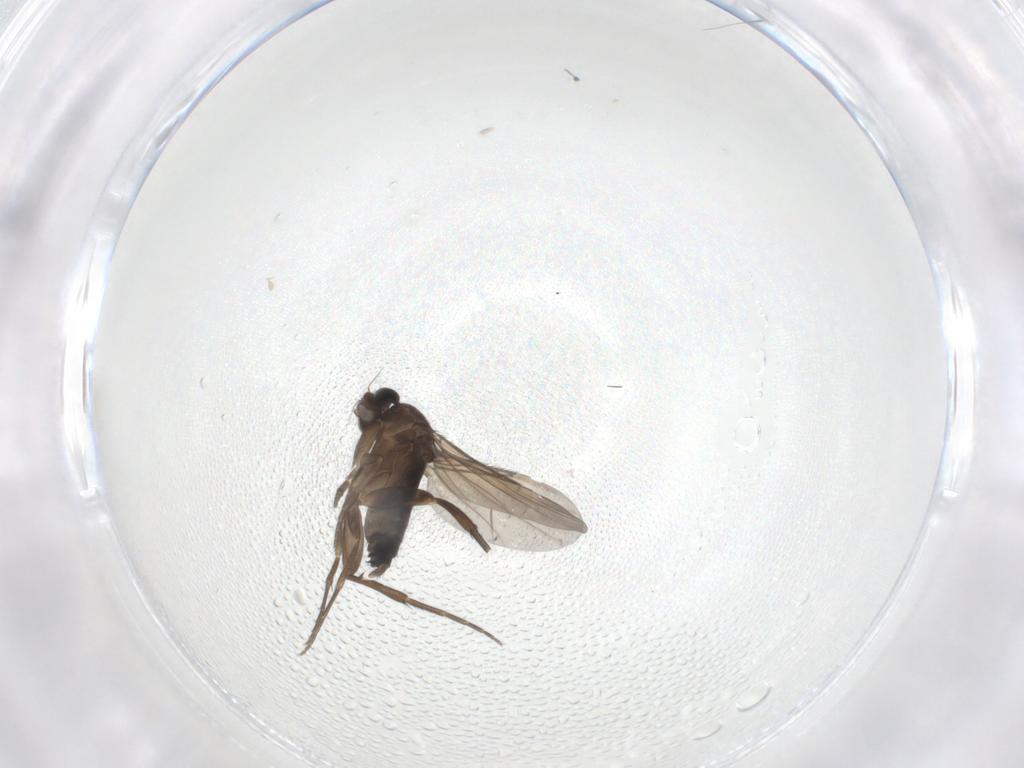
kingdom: Animalia
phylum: Arthropoda
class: Insecta
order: Diptera
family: Phoridae
